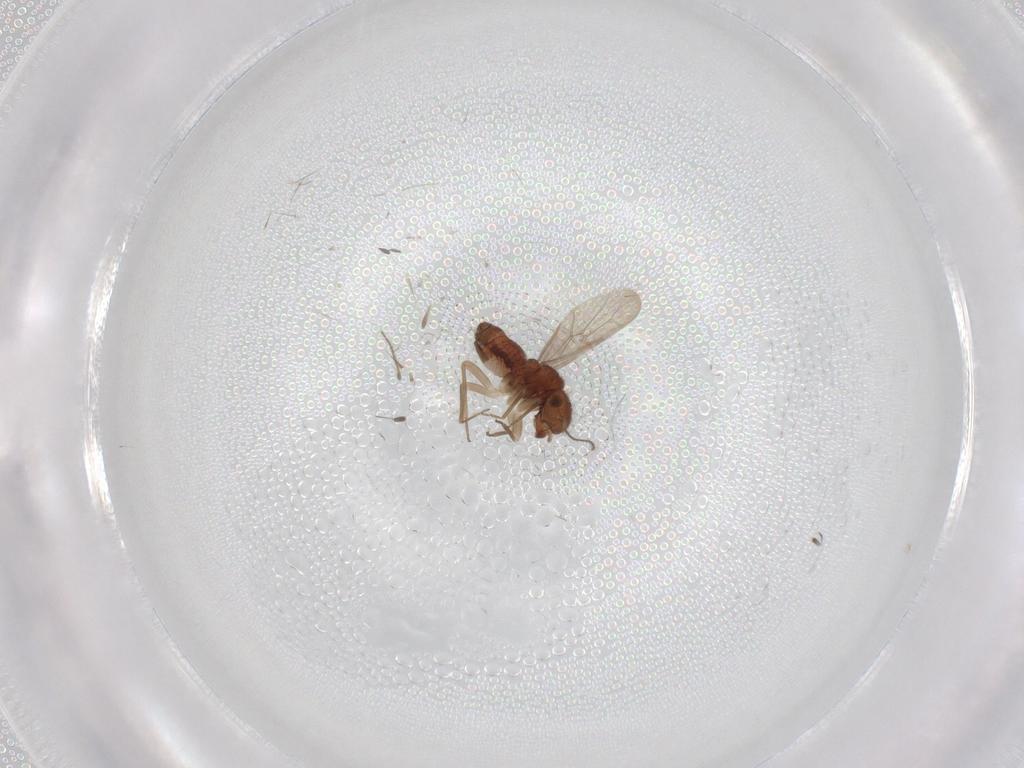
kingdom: Animalia
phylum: Arthropoda
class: Insecta
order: Psocodea
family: Ectopsocidae
